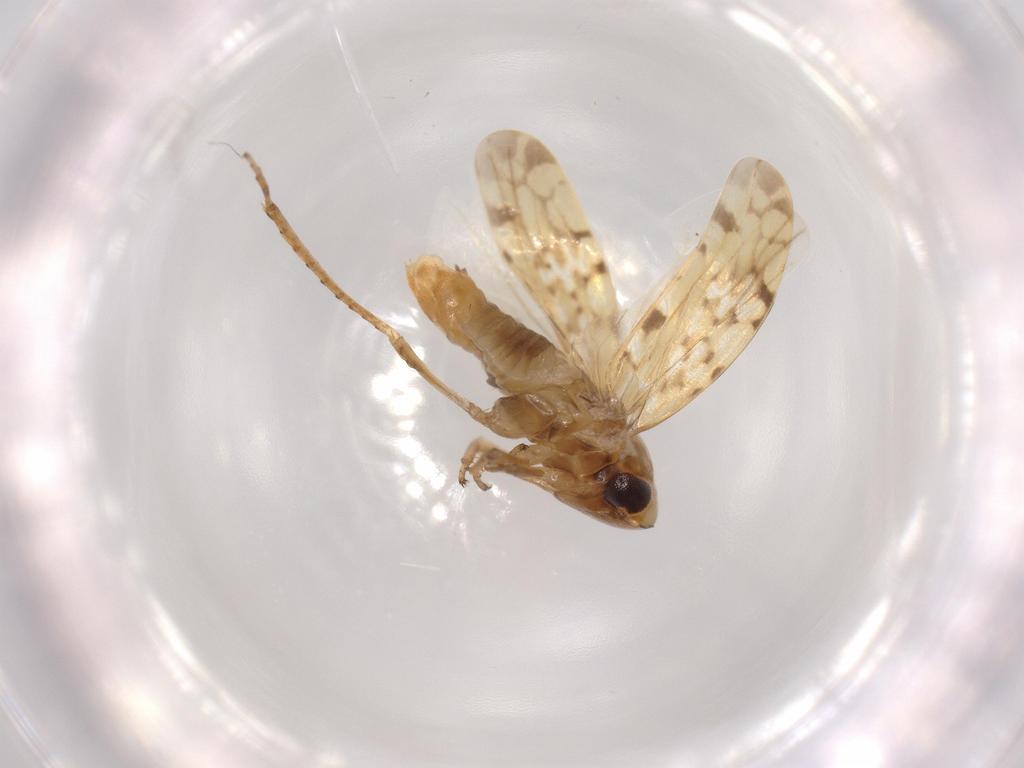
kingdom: Animalia
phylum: Arthropoda
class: Insecta
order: Hemiptera
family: Cicadellidae
